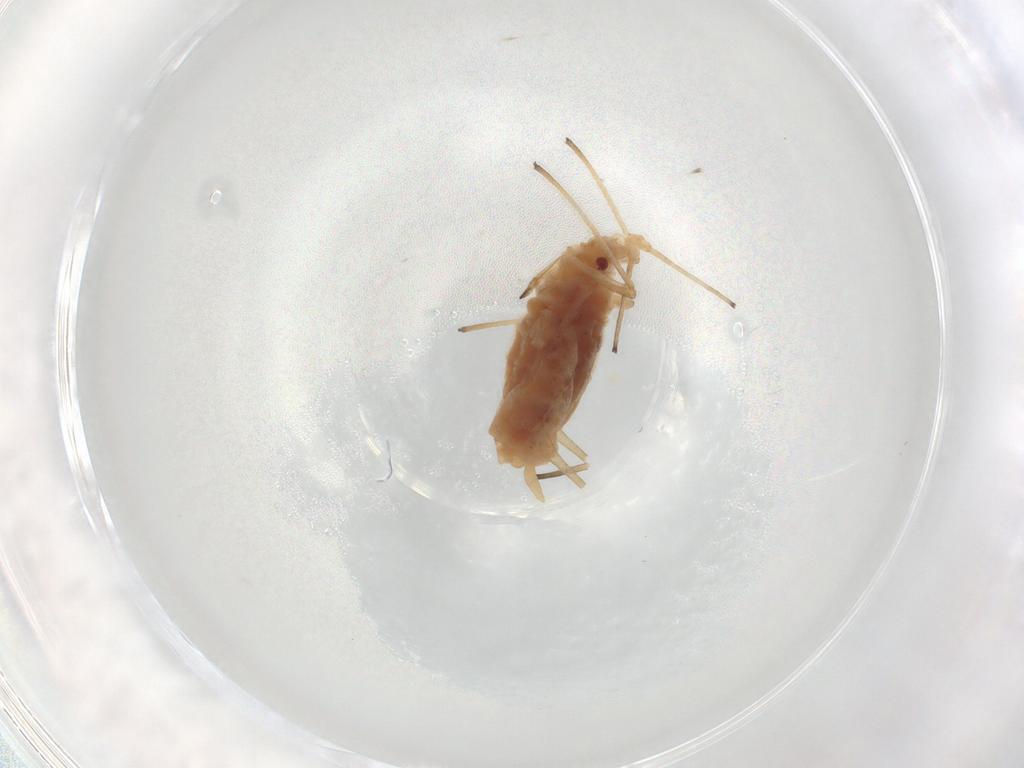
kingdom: Animalia
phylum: Arthropoda
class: Insecta
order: Hemiptera
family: Aphididae
